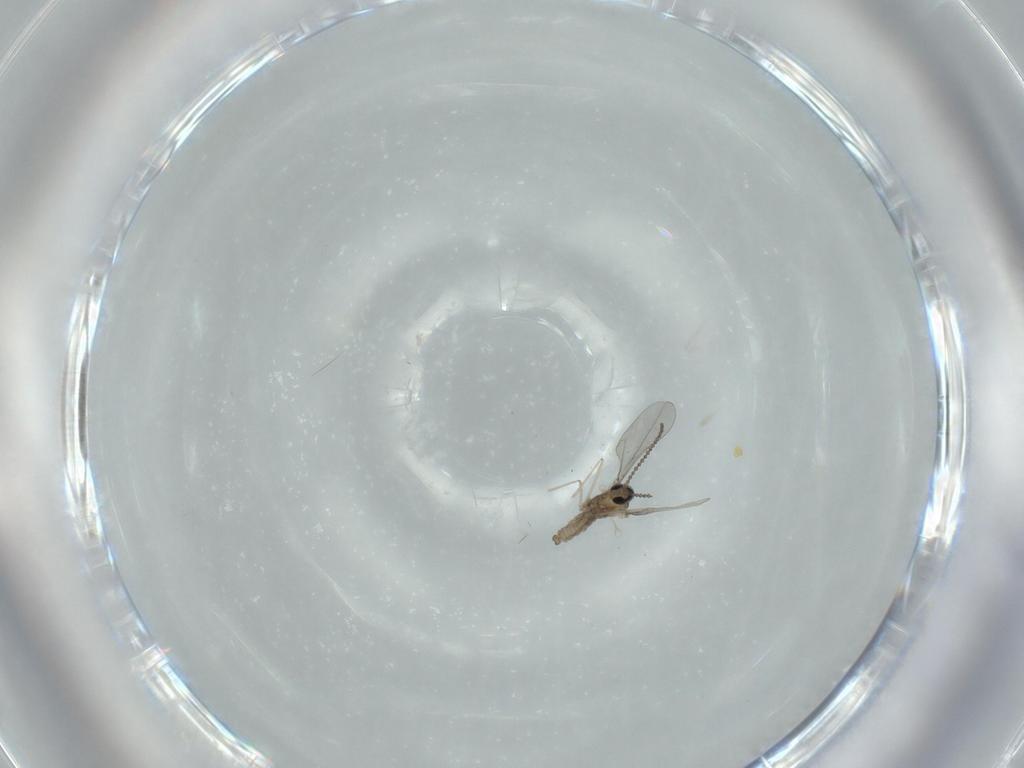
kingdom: Animalia
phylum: Arthropoda
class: Insecta
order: Diptera
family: Cecidomyiidae
